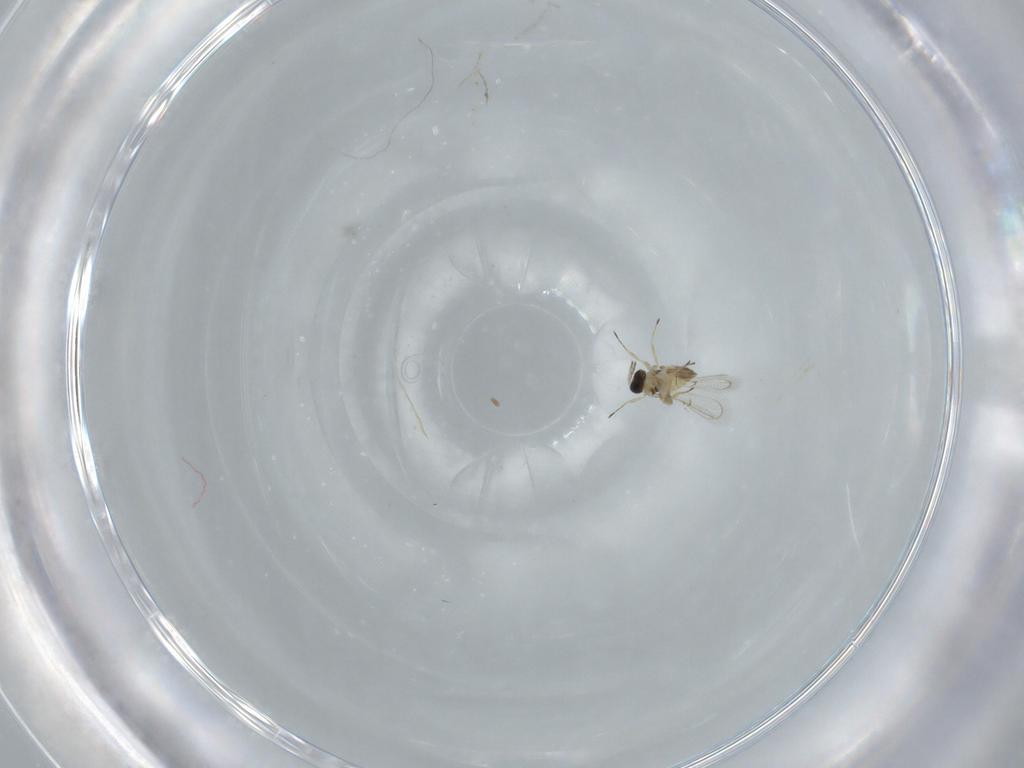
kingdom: Animalia
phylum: Arthropoda
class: Insecta
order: Hymenoptera
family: Trichogrammatidae
